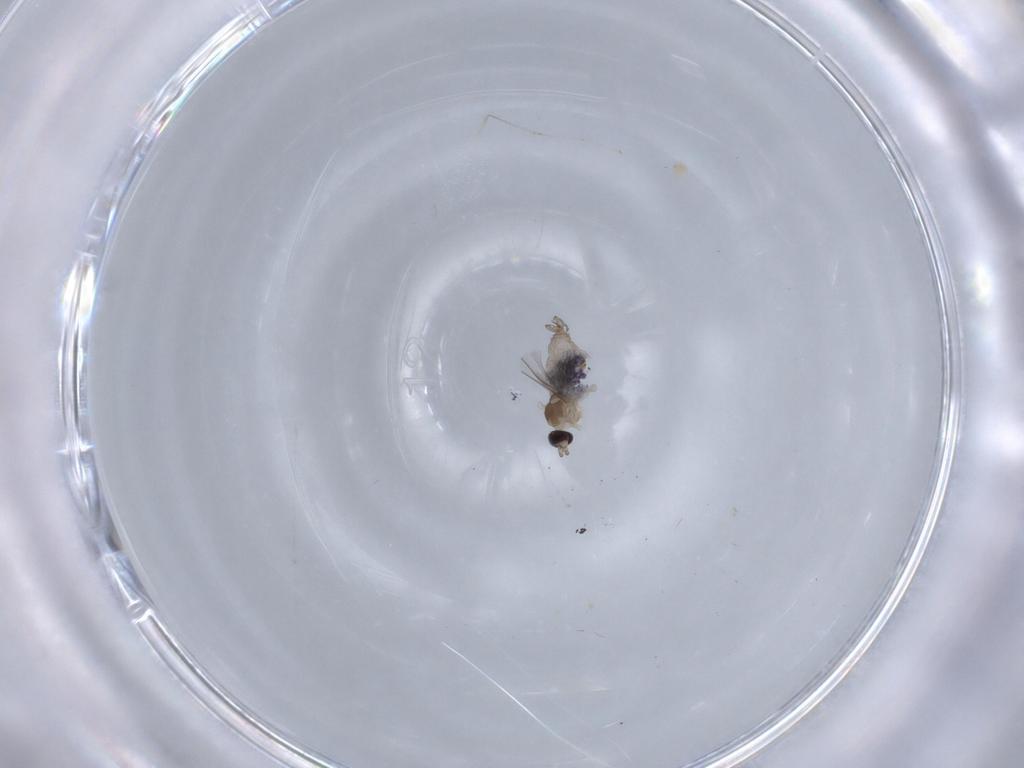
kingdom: Animalia
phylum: Arthropoda
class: Insecta
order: Diptera
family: Cecidomyiidae
